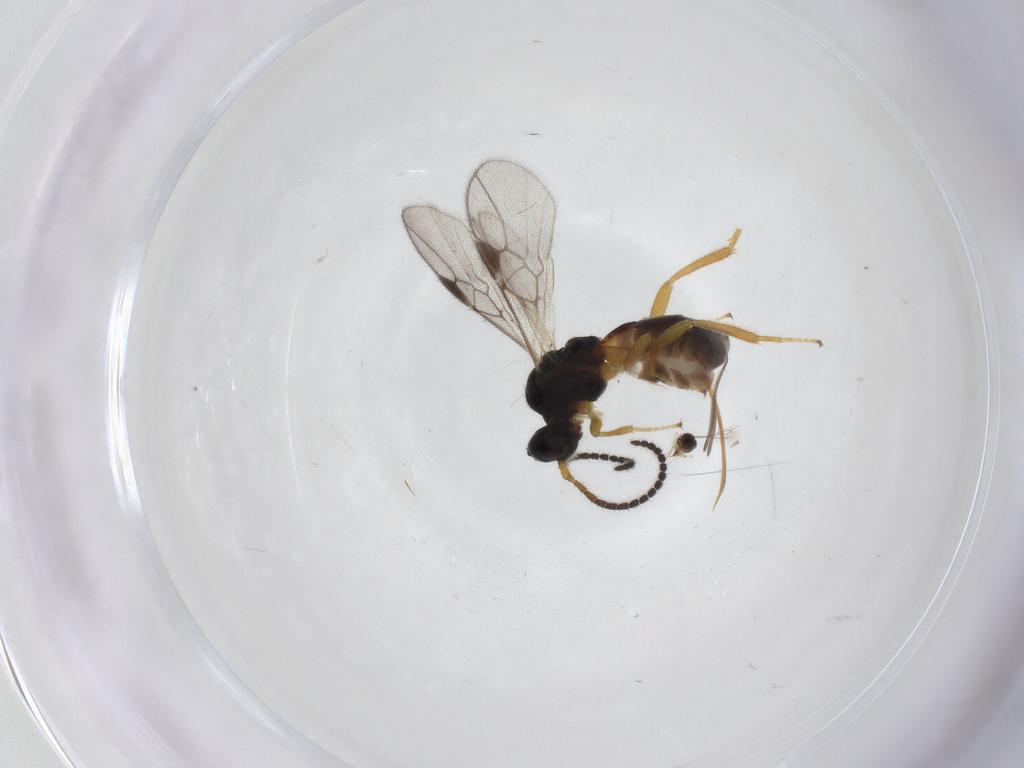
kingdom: Animalia
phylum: Arthropoda
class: Insecta
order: Hymenoptera
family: Braconidae
